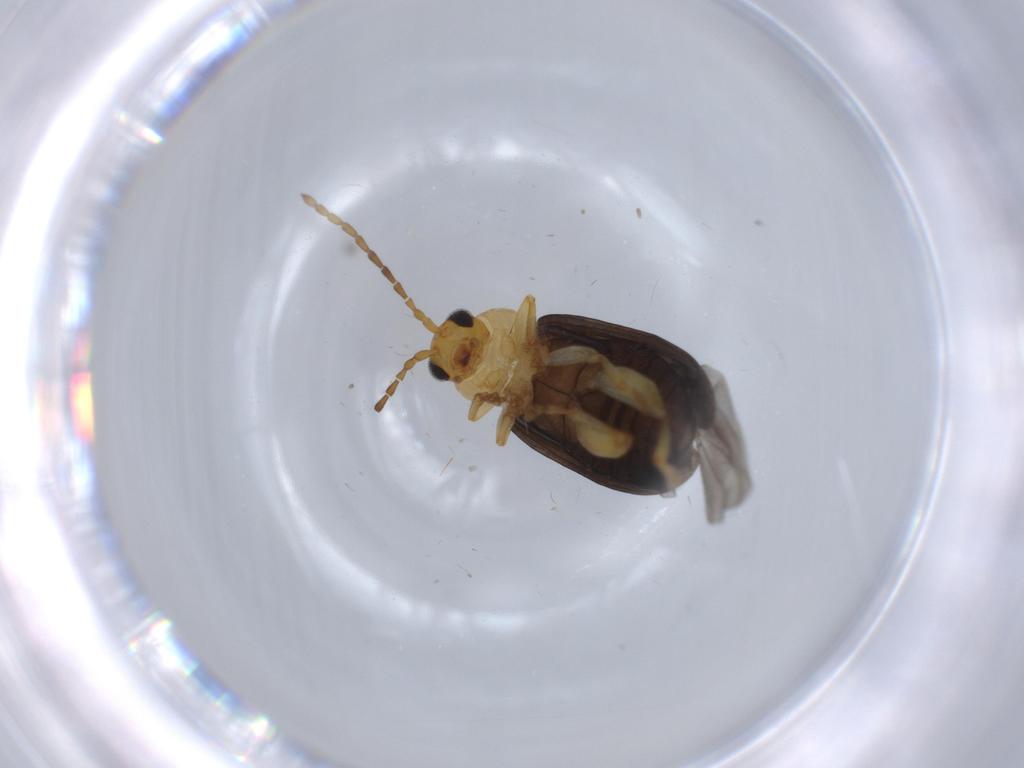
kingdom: Animalia
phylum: Arthropoda
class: Insecta
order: Coleoptera
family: Chrysomelidae
